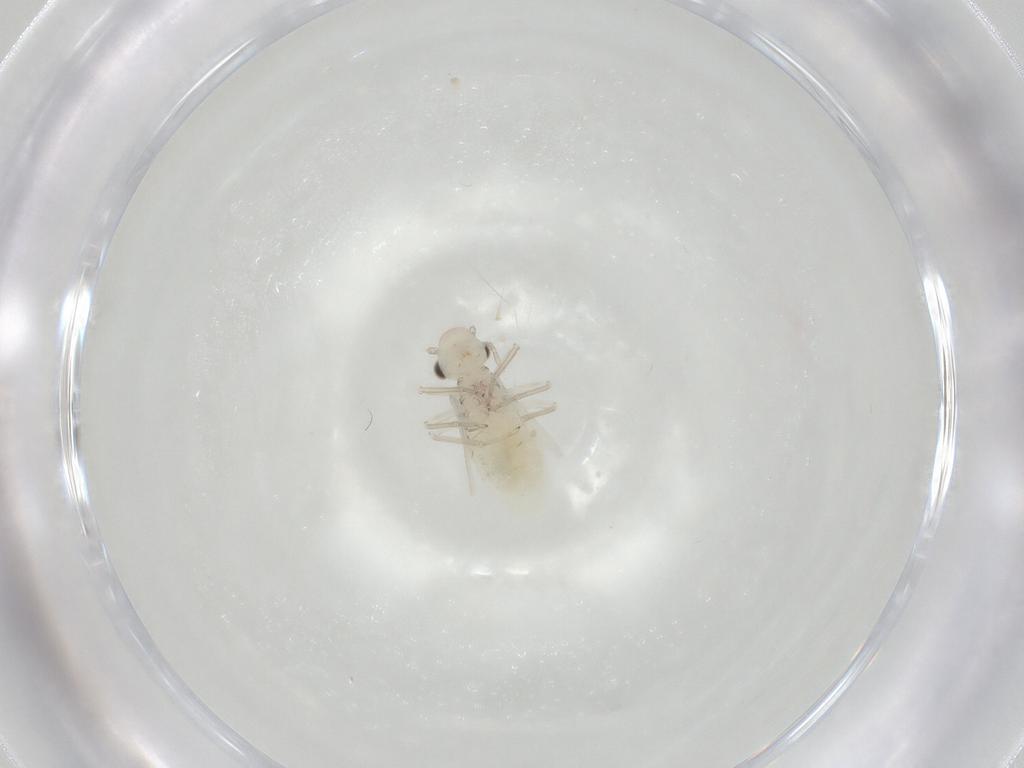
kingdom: Animalia
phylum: Arthropoda
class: Insecta
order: Psocodea
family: Caeciliusidae
